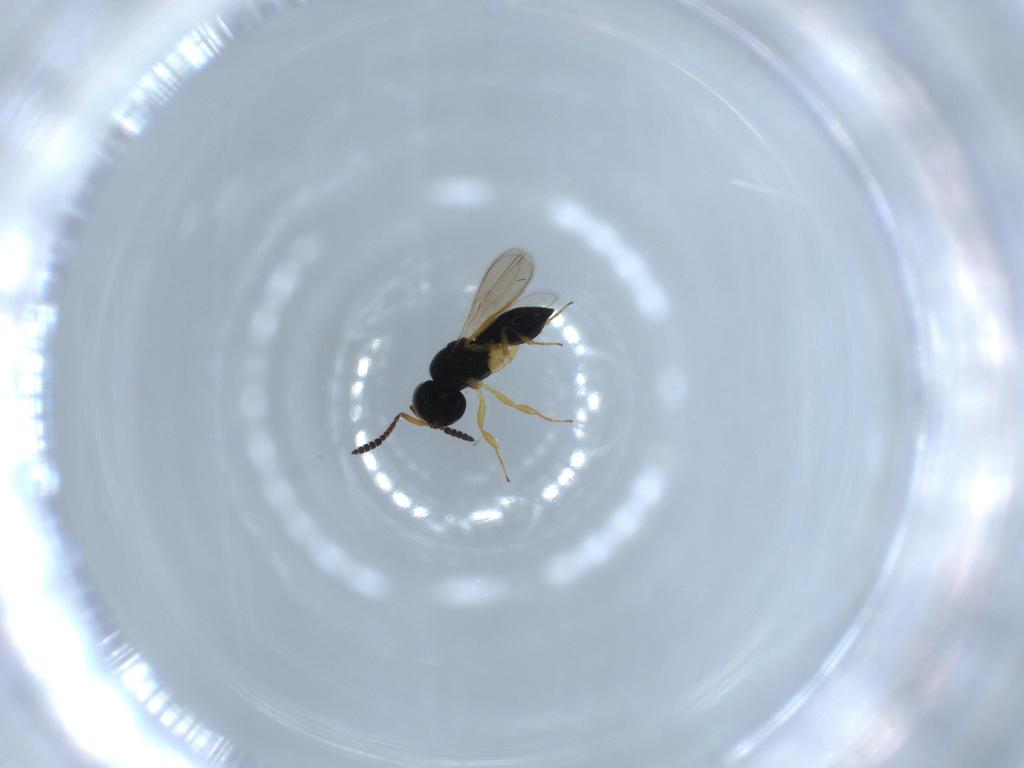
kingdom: Animalia
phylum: Arthropoda
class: Insecta
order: Hymenoptera
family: Scelionidae
